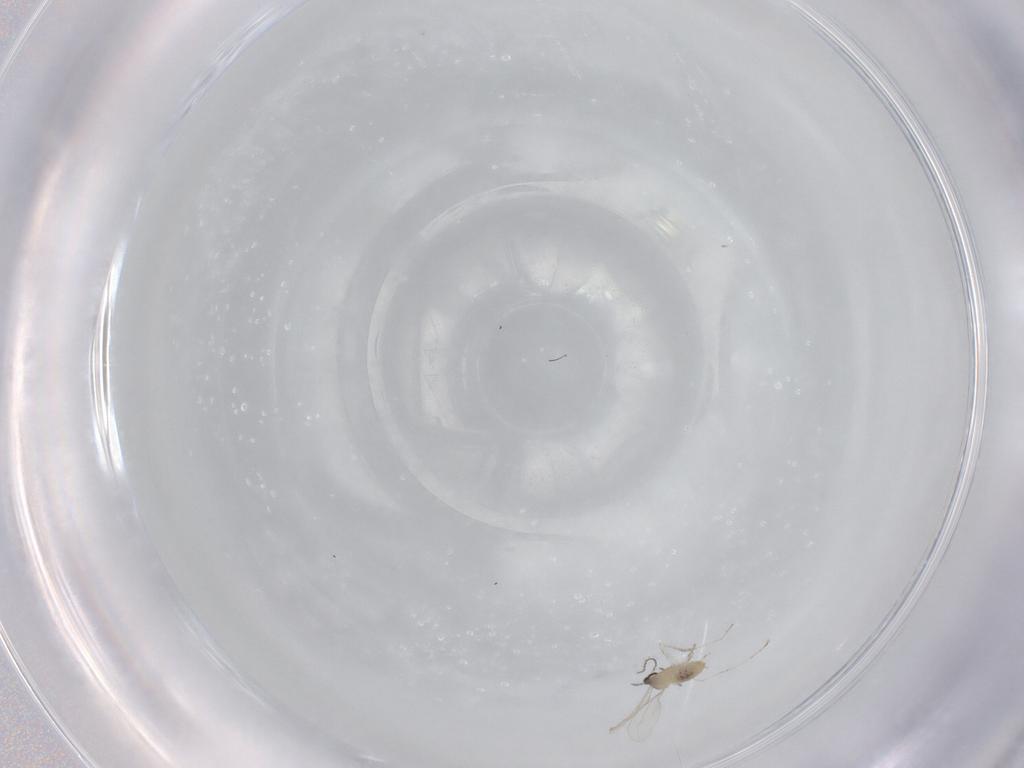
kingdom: Animalia
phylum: Arthropoda
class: Insecta
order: Diptera
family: Cecidomyiidae
